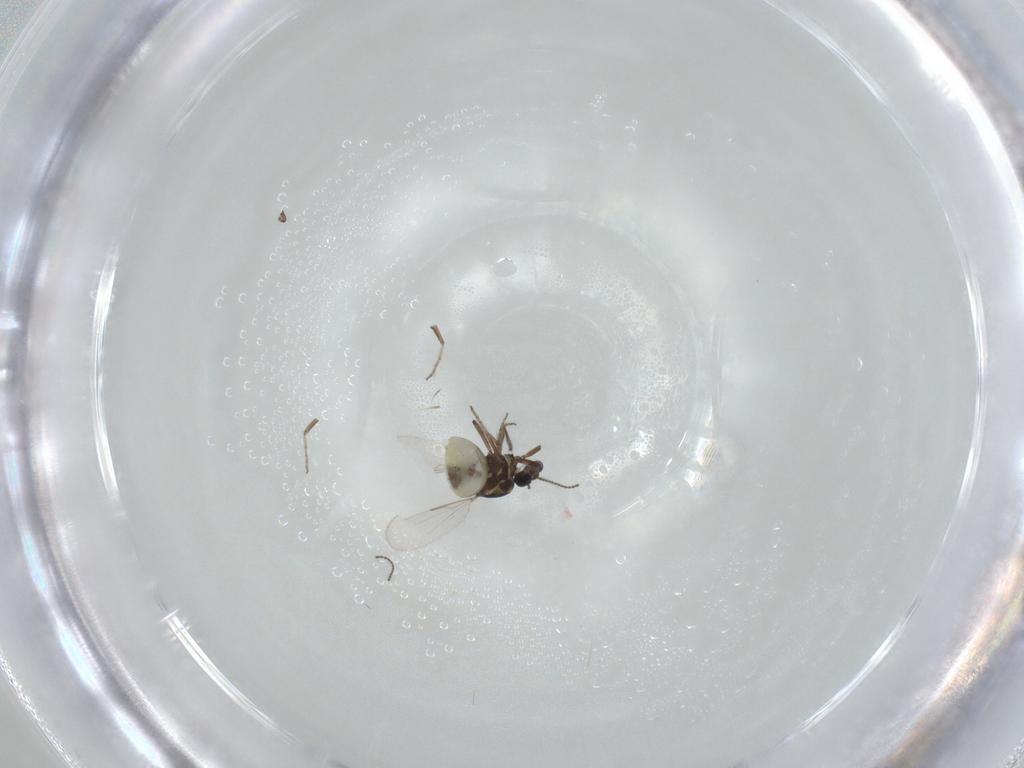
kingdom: Animalia
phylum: Arthropoda
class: Insecta
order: Diptera
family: Ceratopogonidae
